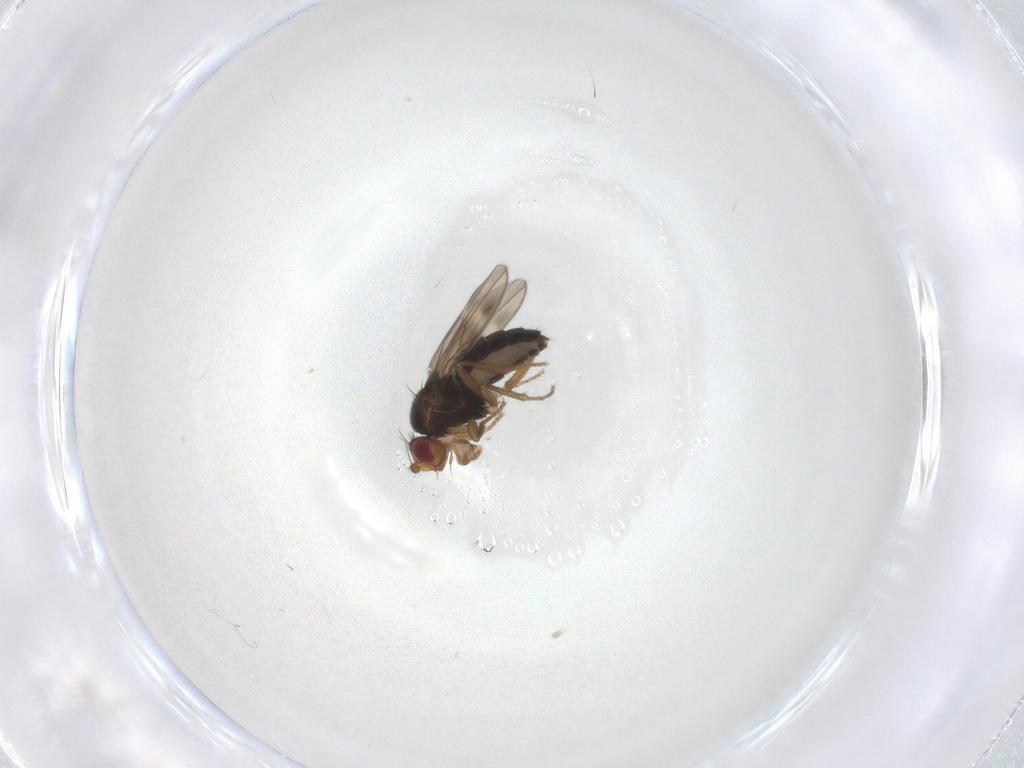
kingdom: Animalia
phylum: Arthropoda
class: Insecta
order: Diptera
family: Sphaeroceridae
